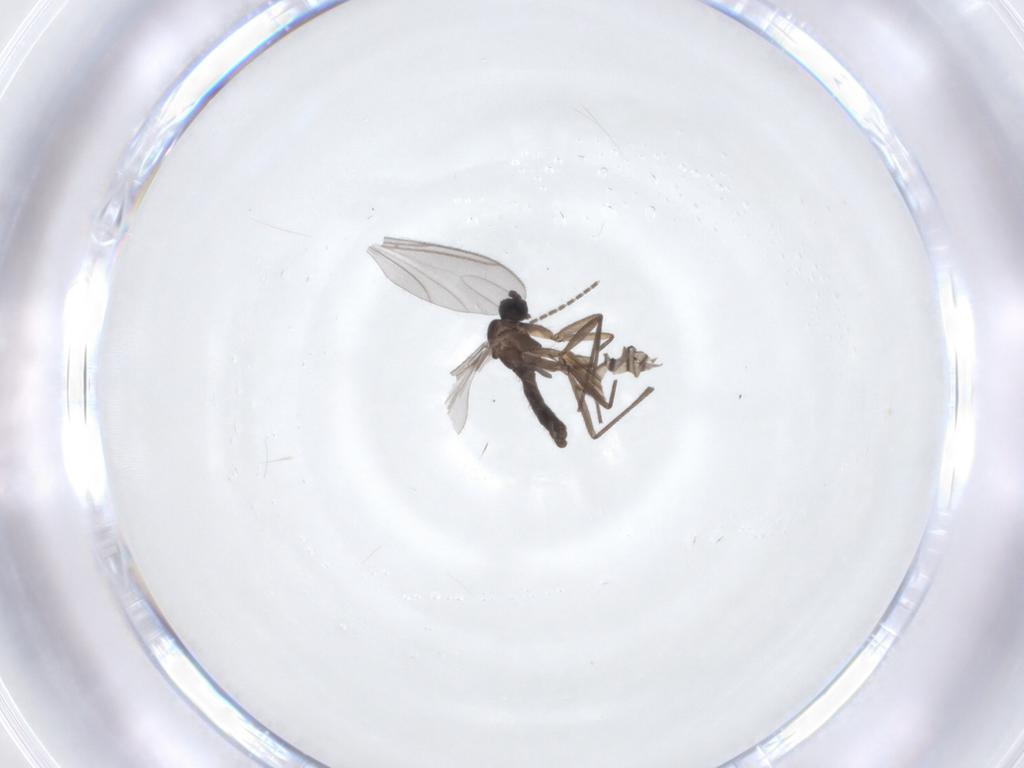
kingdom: Animalia
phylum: Arthropoda
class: Insecta
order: Diptera
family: Sciaridae
